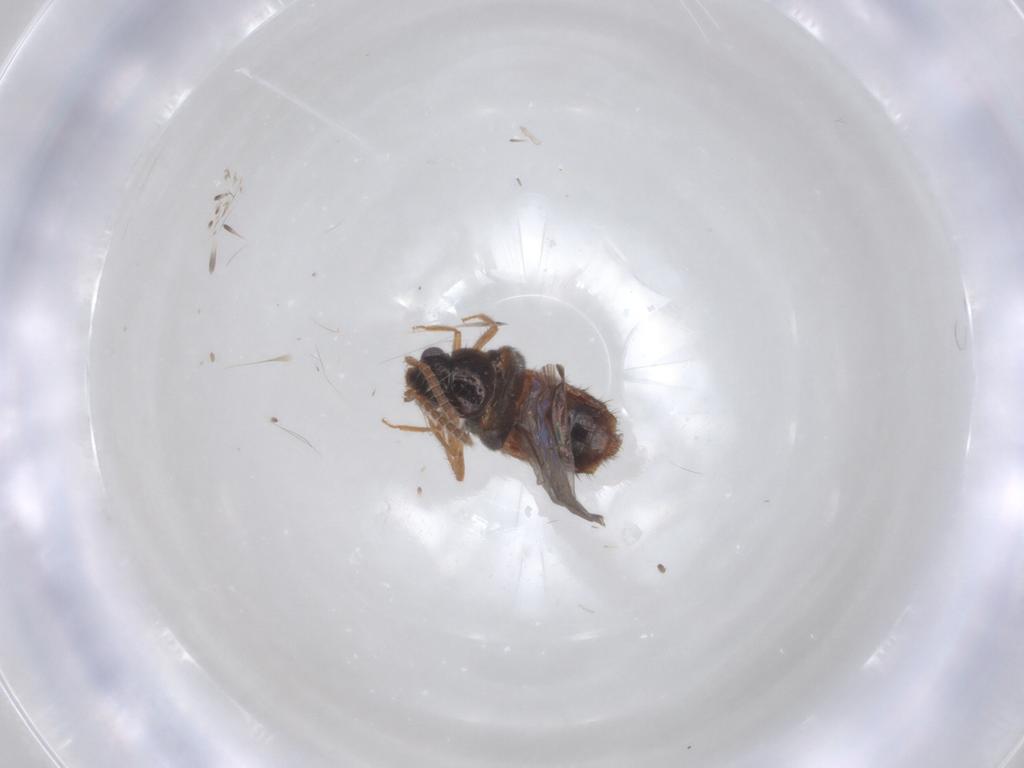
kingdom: Animalia
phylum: Arthropoda
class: Insecta
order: Coleoptera
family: Staphylinidae
